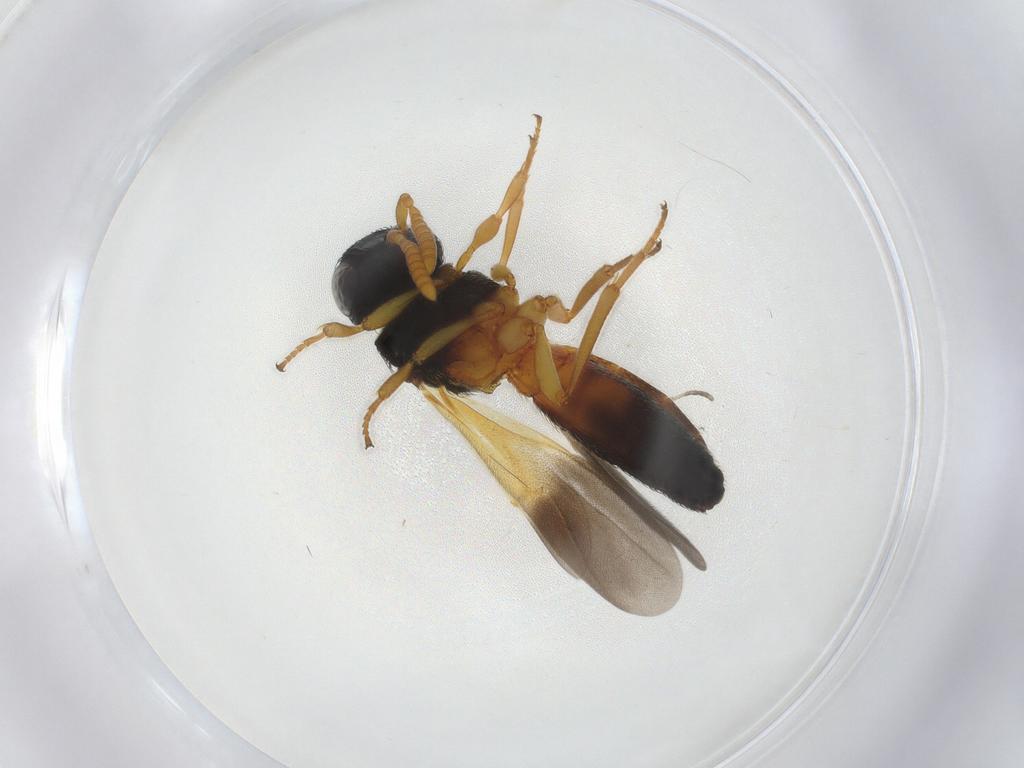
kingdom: Animalia
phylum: Arthropoda
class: Insecta
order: Hymenoptera
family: Scelionidae
